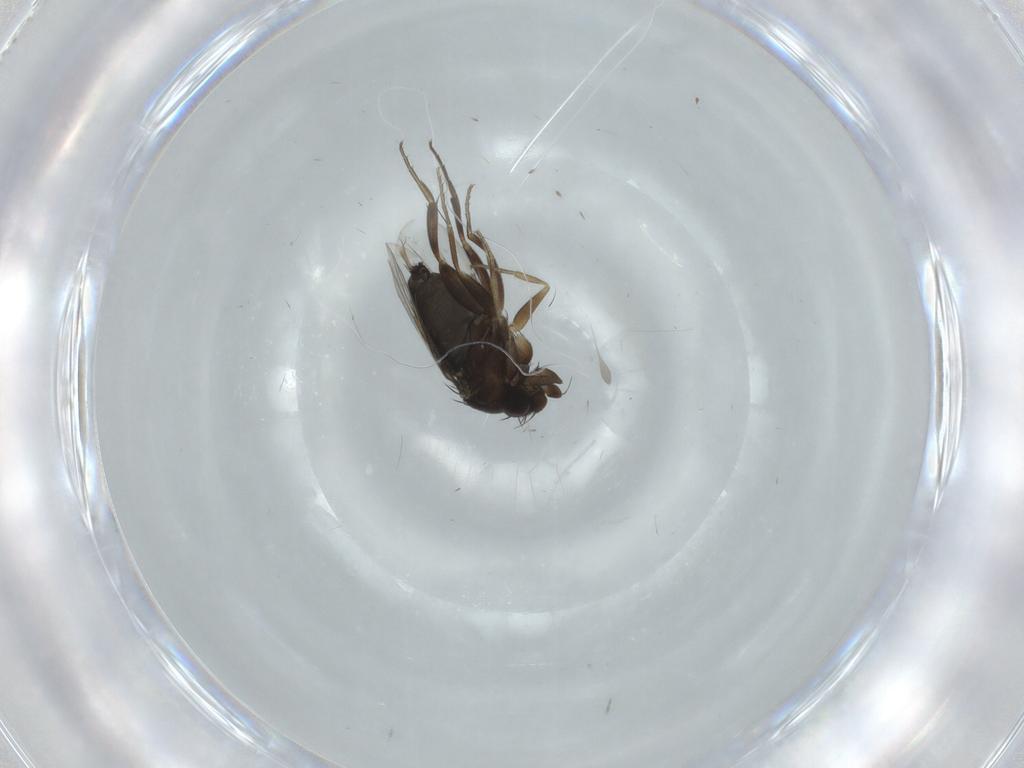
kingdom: Animalia
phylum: Arthropoda
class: Insecta
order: Diptera
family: Phoridae
